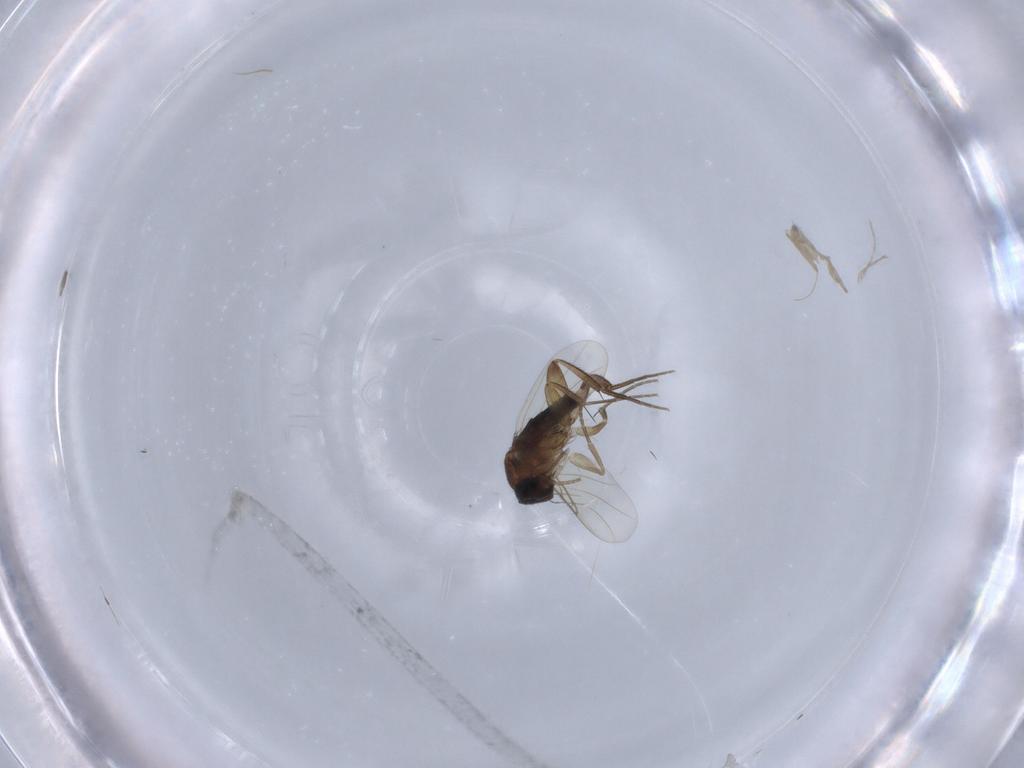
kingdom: Animalia
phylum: Arthropoda
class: Insecta
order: Diptera
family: Phoridae
